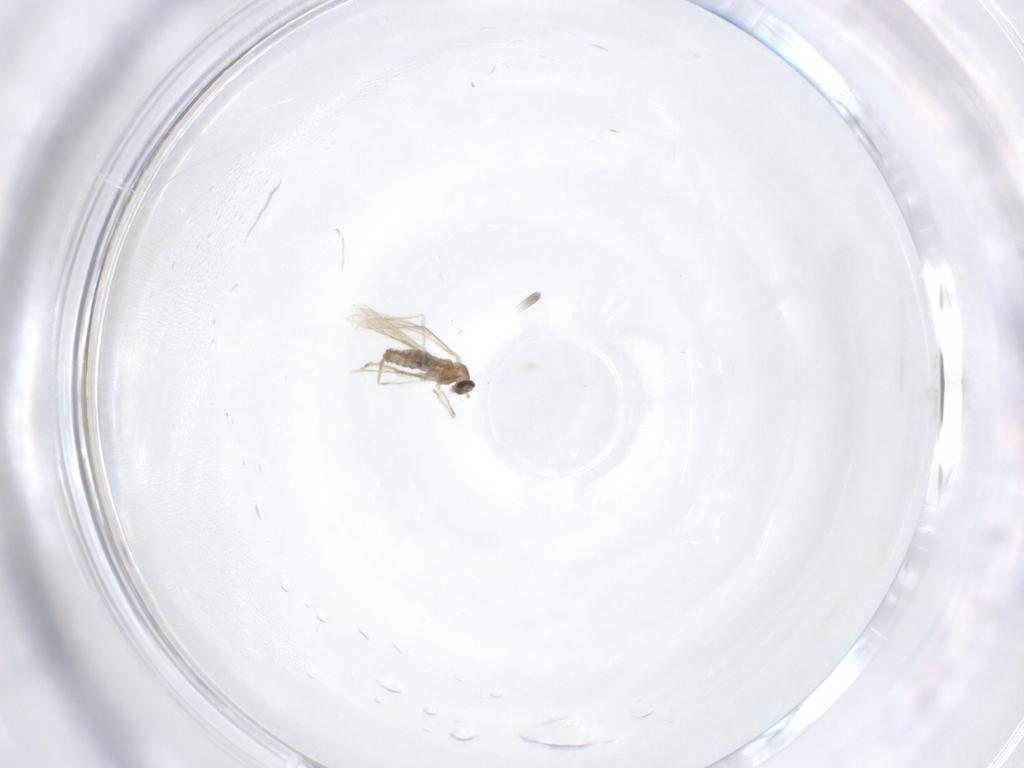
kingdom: Animalia
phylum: Arthropoda
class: Insecta
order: Diptera
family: Cecidomyiidae
